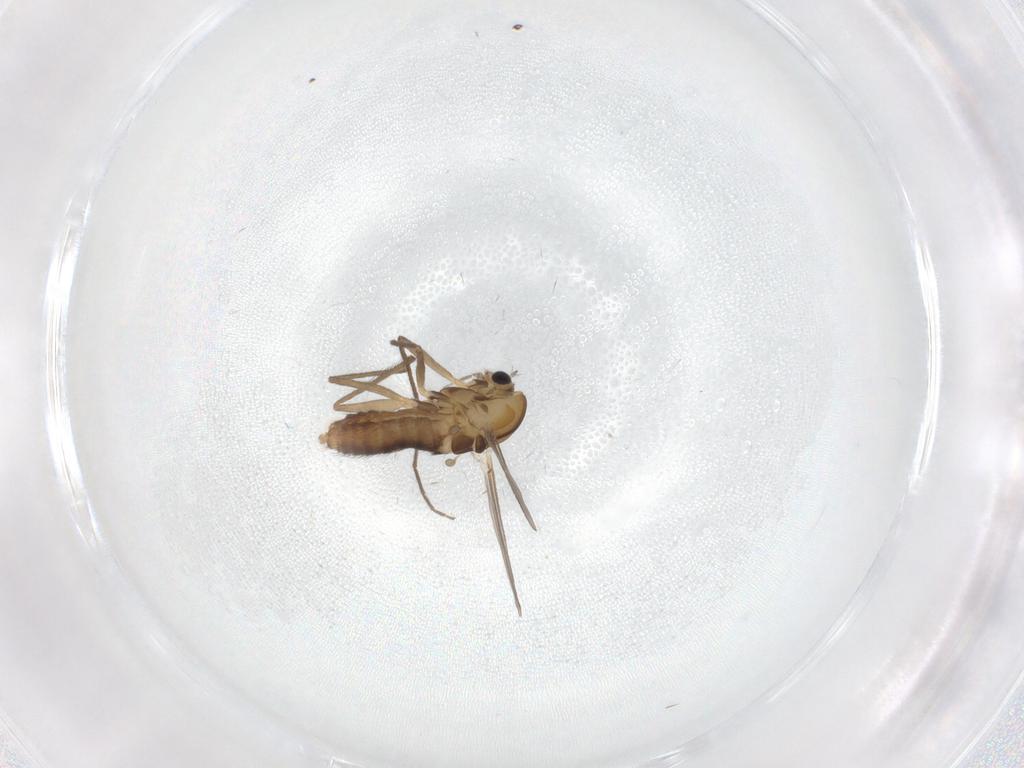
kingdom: Animalia
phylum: Arthropoda
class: Insecta
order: Diptera
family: Chironomidae
